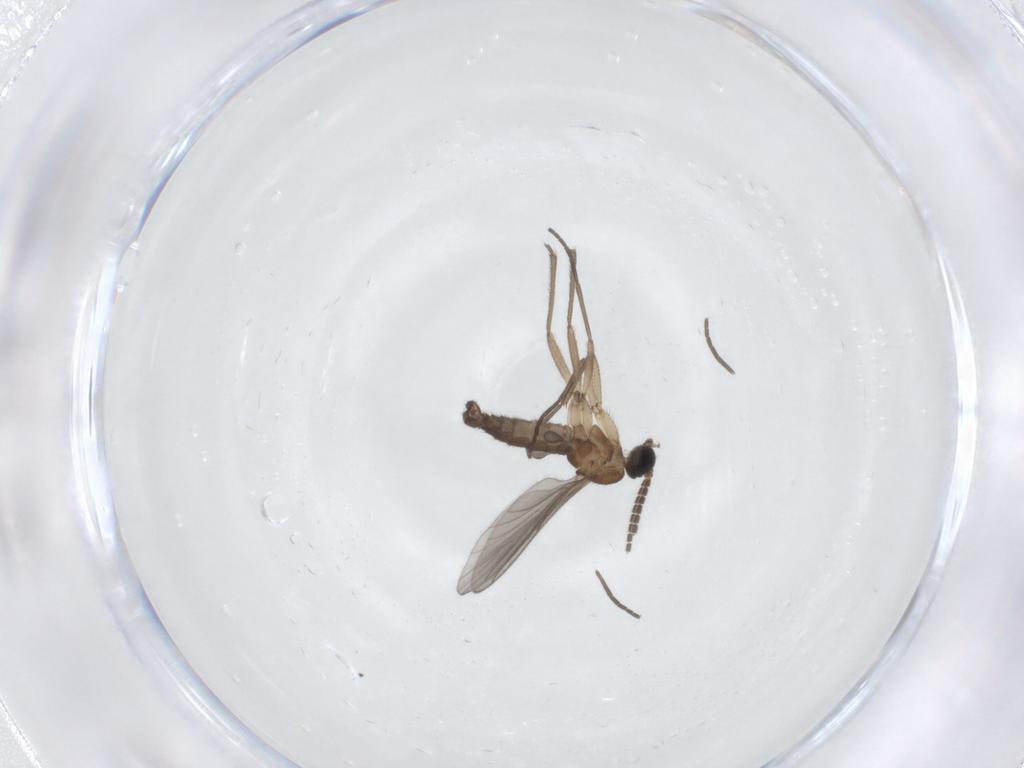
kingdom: Animalia
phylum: Arthropoda
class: Insecta
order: Diptera
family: Sciaridae
